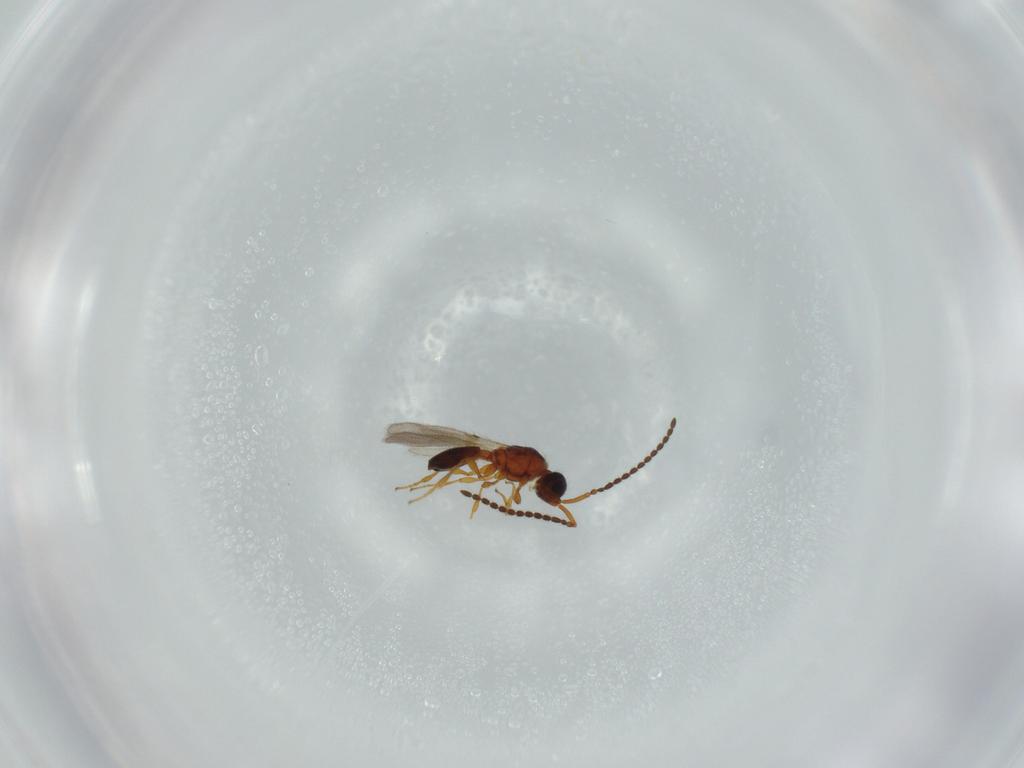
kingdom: Animalia
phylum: Arthropoda
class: Insecta
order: Hymenoptera
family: Diapriidae
